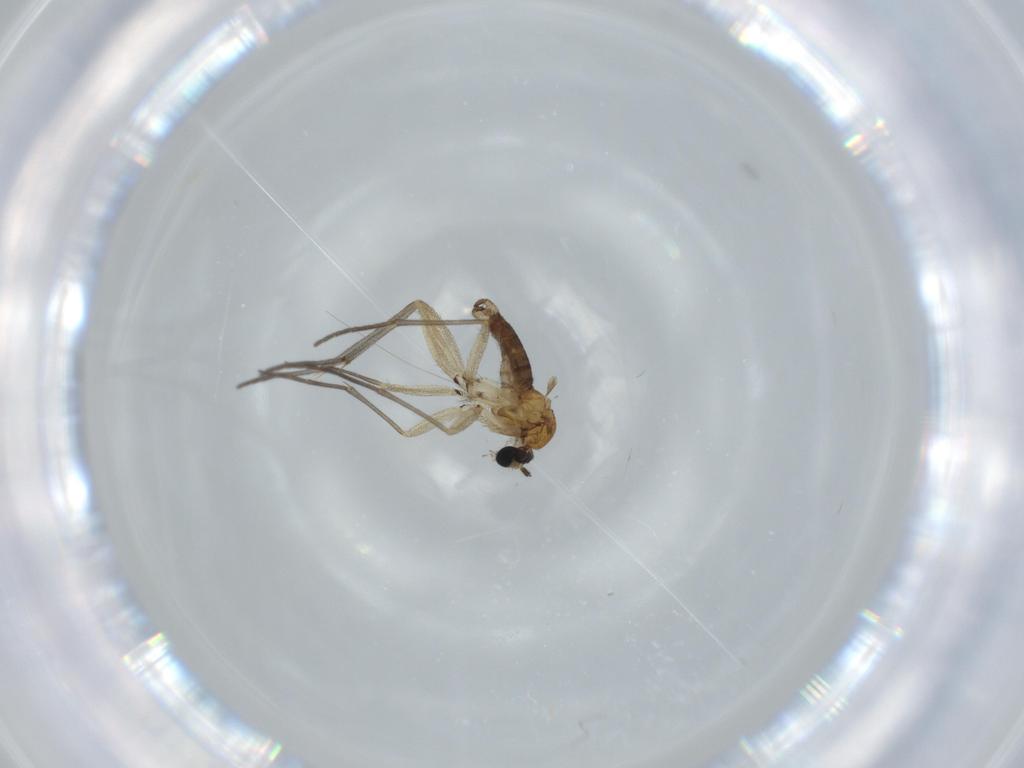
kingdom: Animalia
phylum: Arthropoda
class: Insecta
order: Diptera
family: Sciaridae
